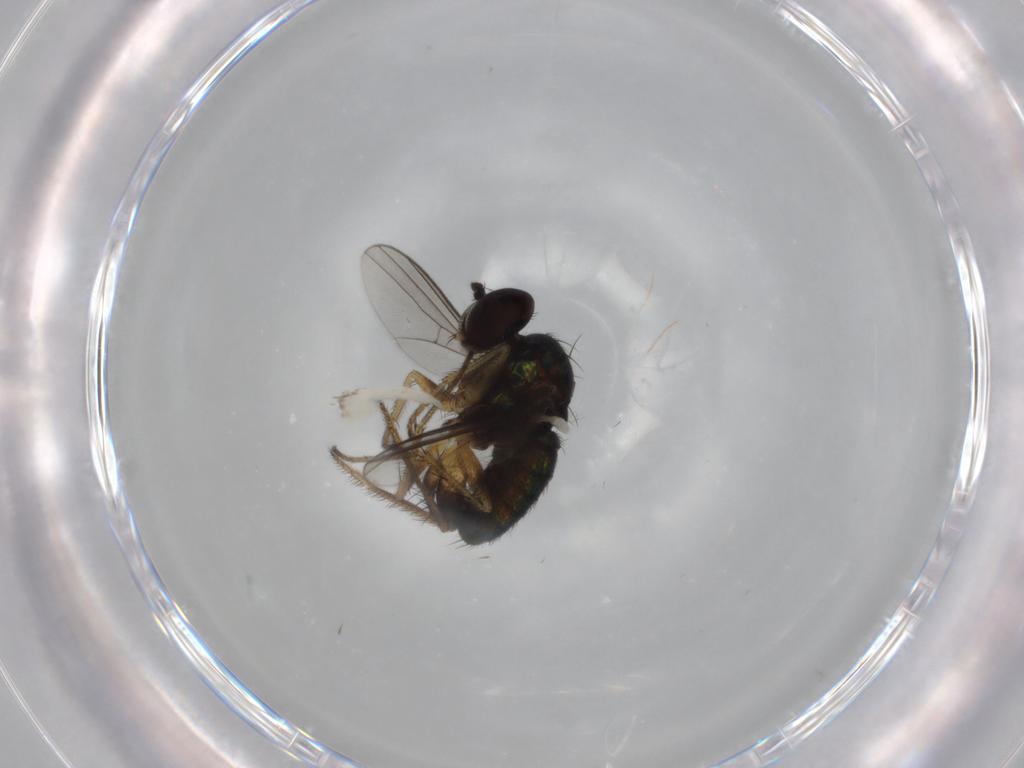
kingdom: Animalia
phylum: Arthropoda
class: Insecta
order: Diptera
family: Dolichopodidae
